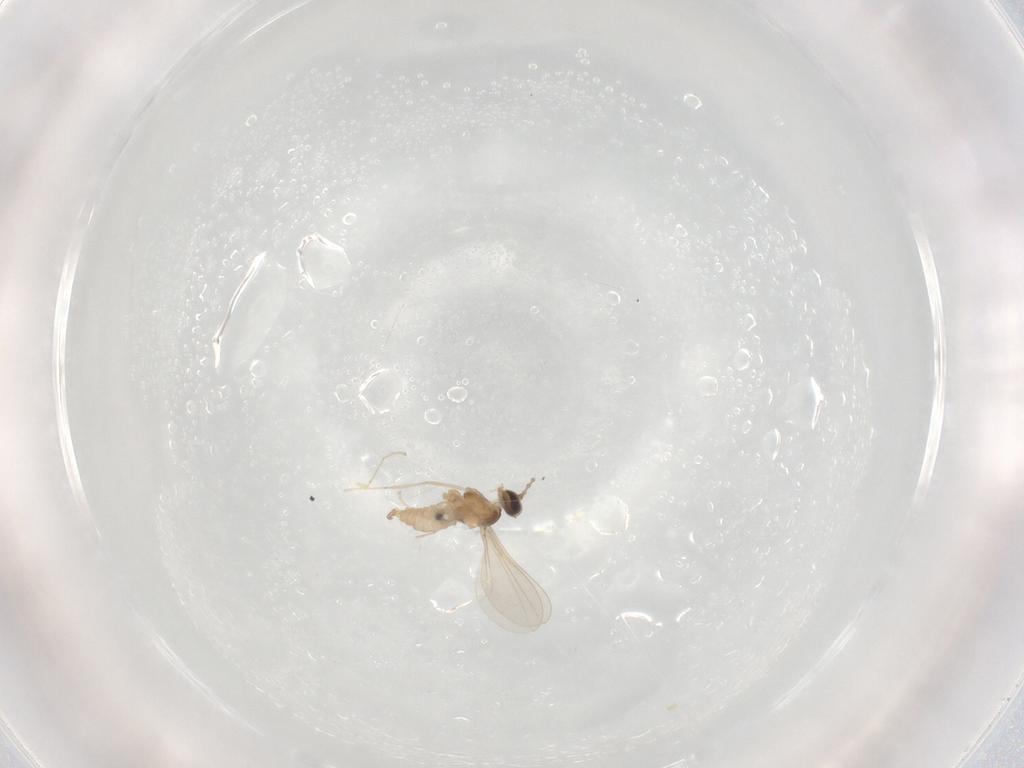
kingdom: Animalia
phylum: Arthropoda
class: Insecta
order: Diptera
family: Cecidomyiidae
